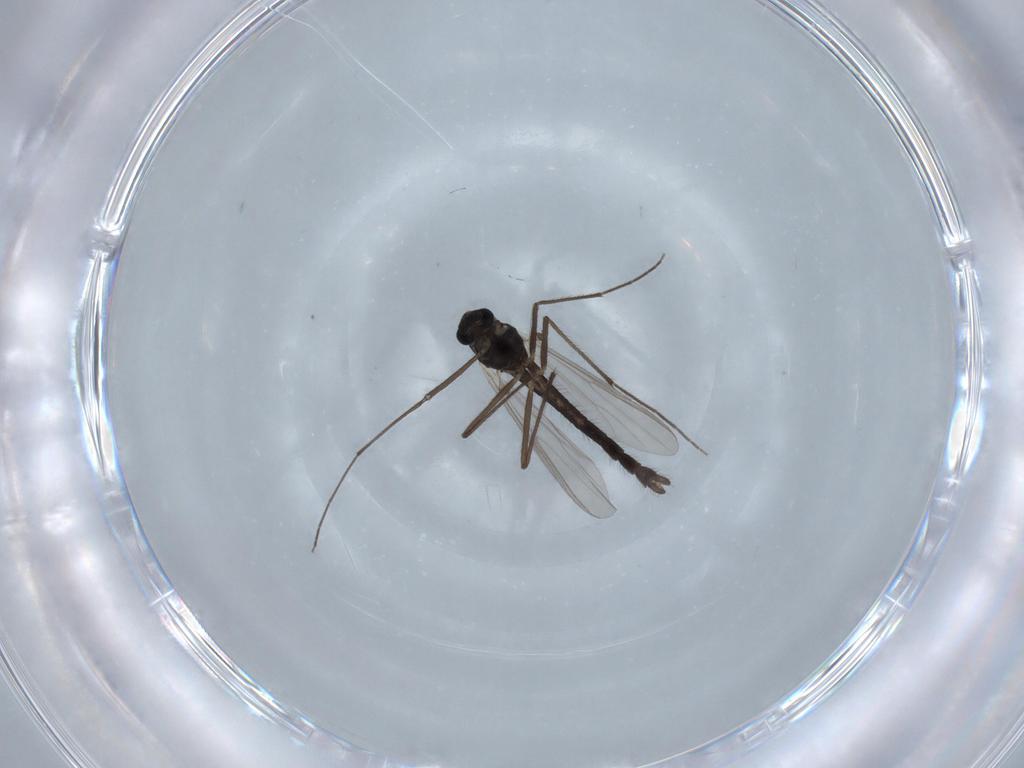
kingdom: Animalia
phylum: Arthropoda
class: Insecta
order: Diptera
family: Chironomidae
